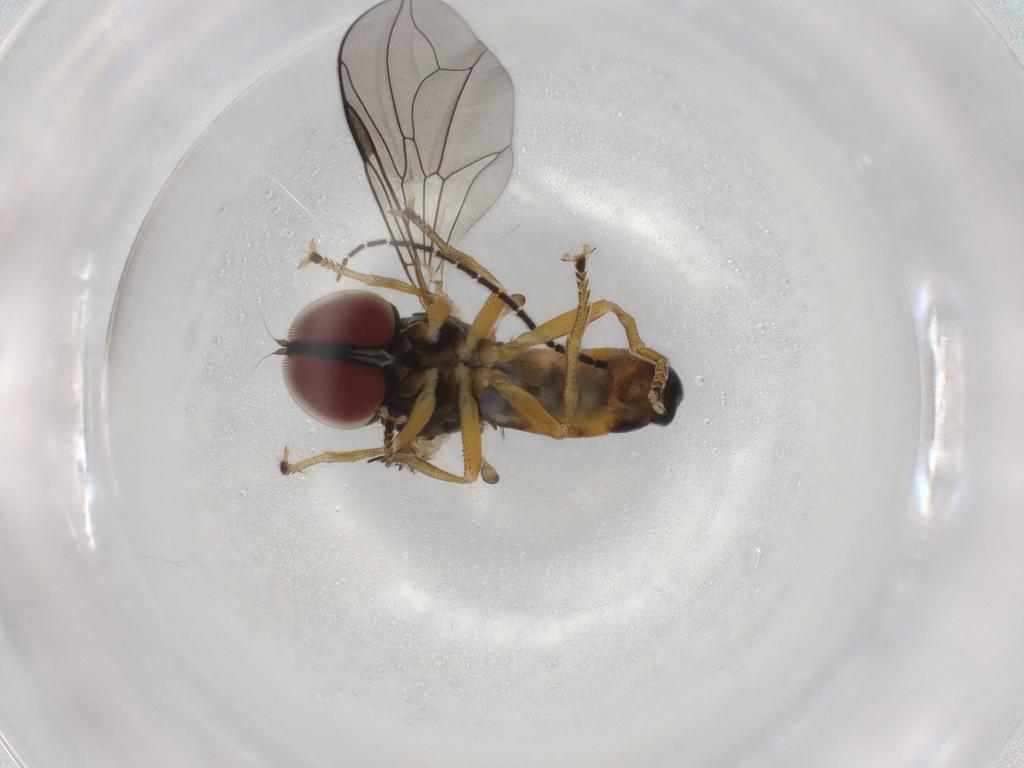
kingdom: Animalia
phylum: Arthropoda
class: Insecta
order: Diptera
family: Pipunculidae
